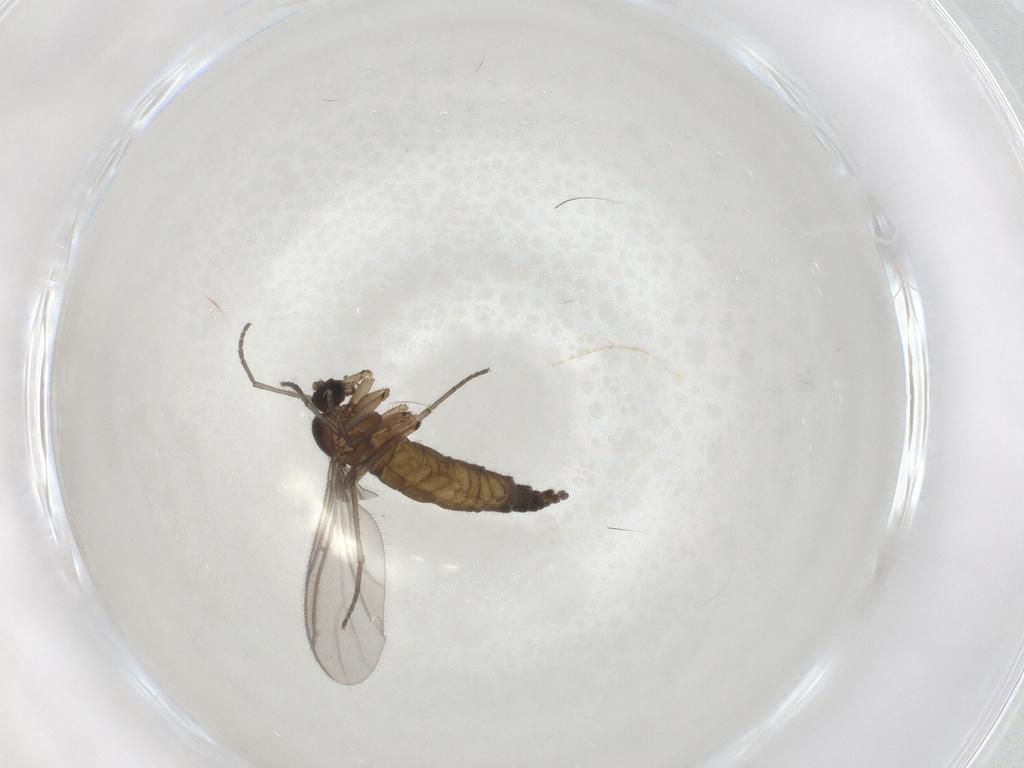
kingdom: Animalia
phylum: Arthropoda
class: Insecta
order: Diptera
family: Sciaridae
